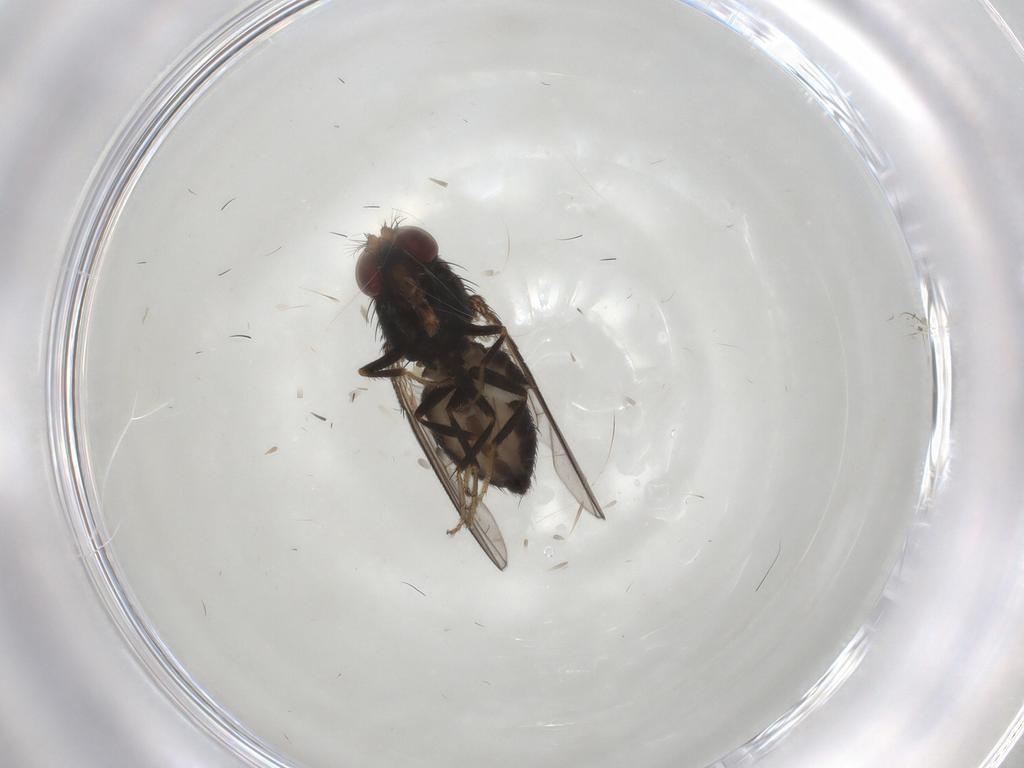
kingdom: Animalia
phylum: Arthropoda
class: Insecta
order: Diptera
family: Ephydridae
